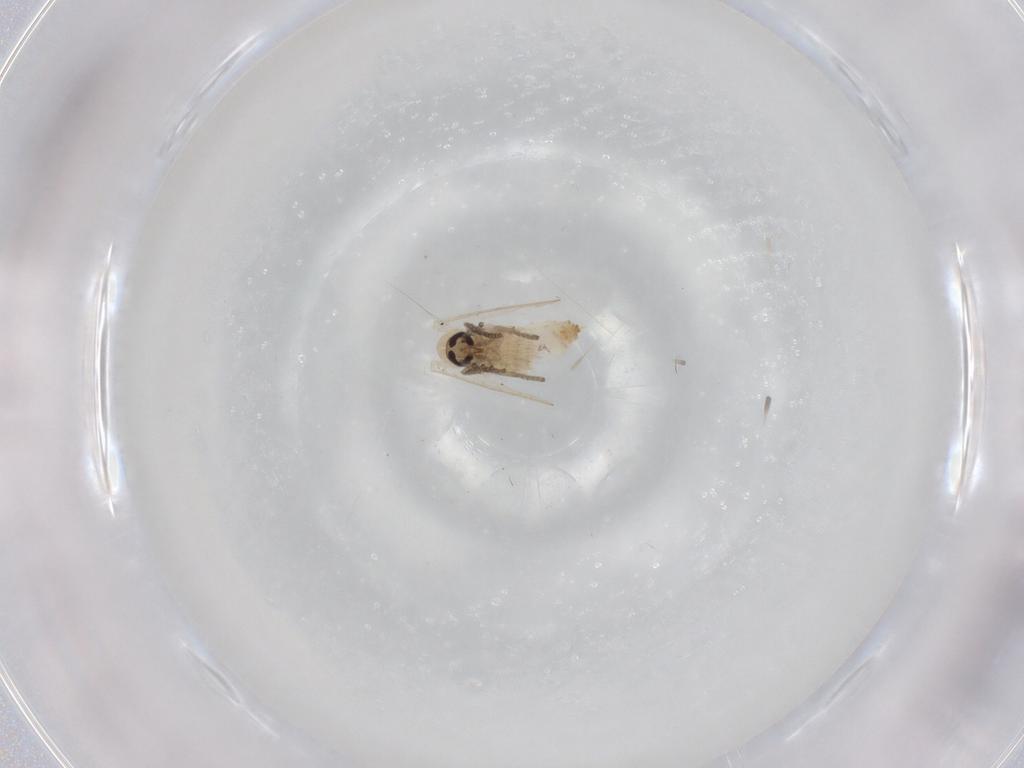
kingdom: Animalia
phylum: Arthropoda
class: Insecta
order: Diptera
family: Psychodidae
